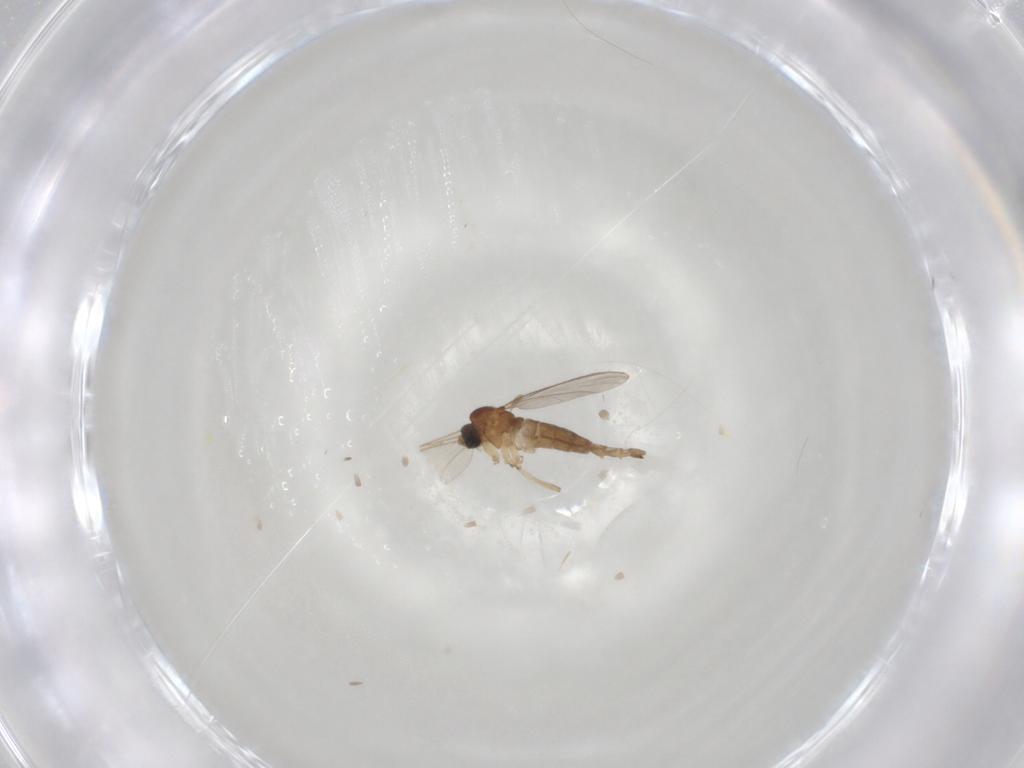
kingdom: Animalia
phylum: Arthropoda
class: Insecta
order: Diptera
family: Sciaridae
